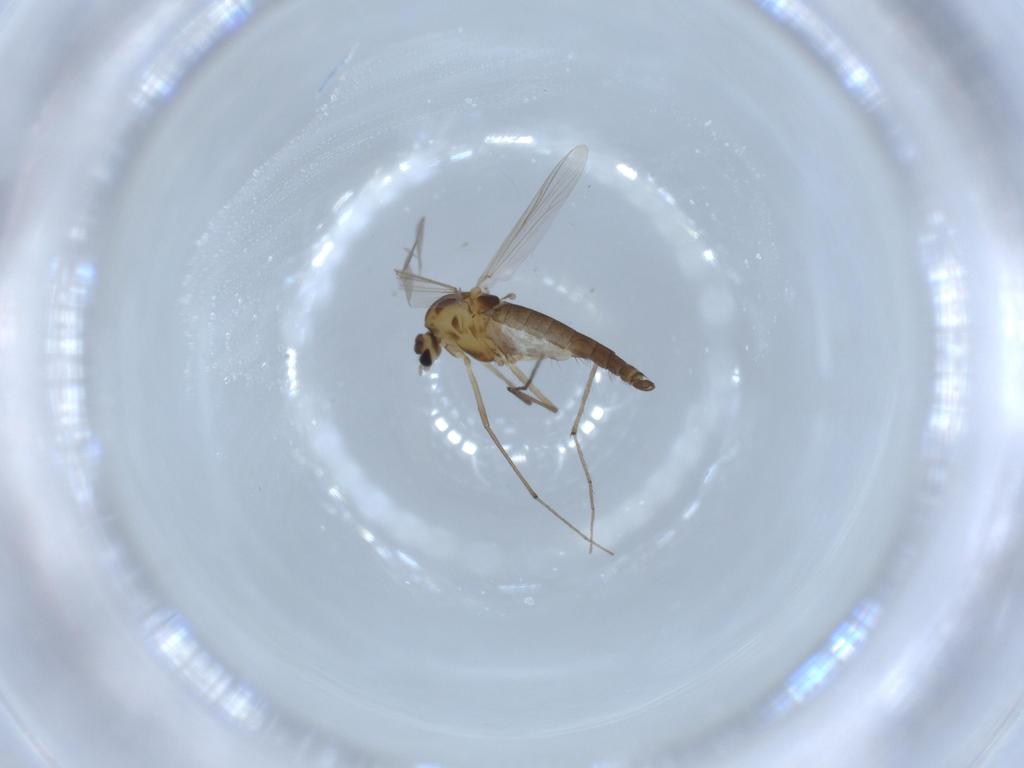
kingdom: Animalia
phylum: Arthropoda
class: Insecta
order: Diptera
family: Chironomidae
